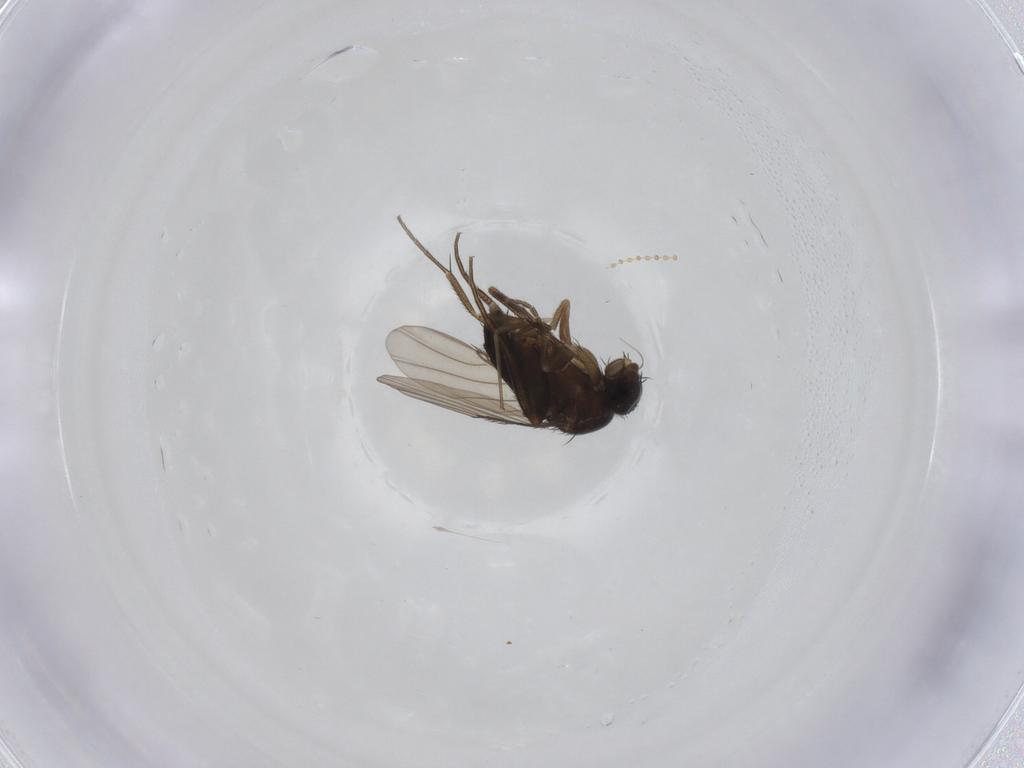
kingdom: Animalia
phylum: Arthropoda
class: Insecta
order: Diptera
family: Phoridae
